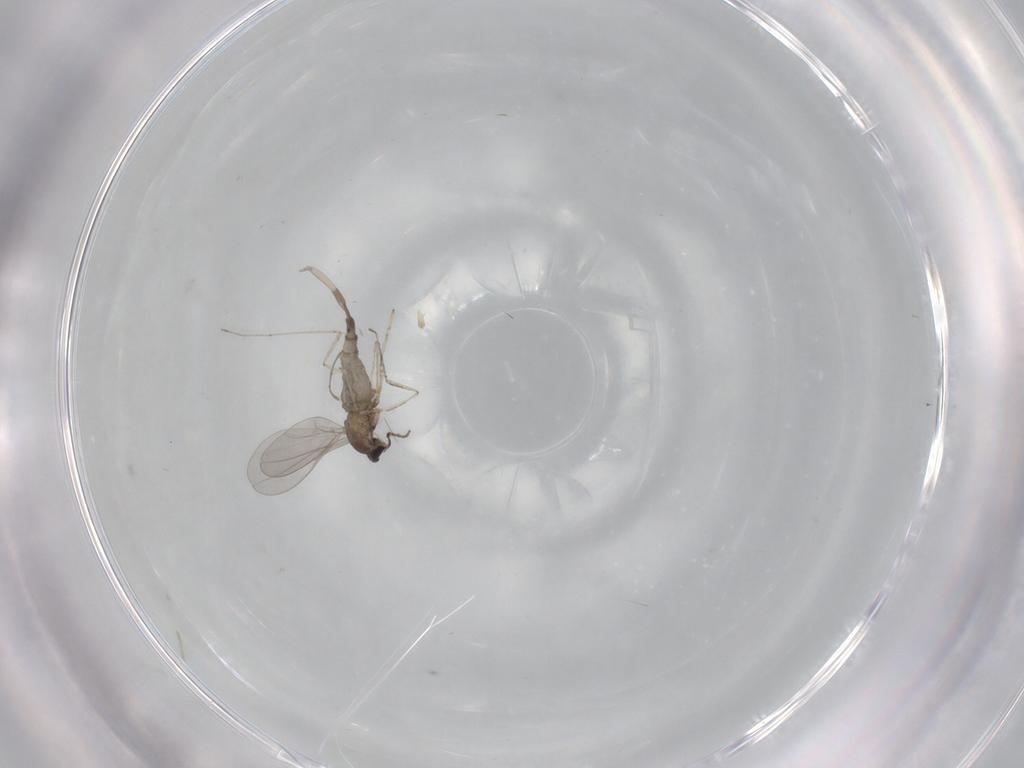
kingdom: Animalia
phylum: Arthropoda
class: Insecta
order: Diptera
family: Cecidomyiidae
